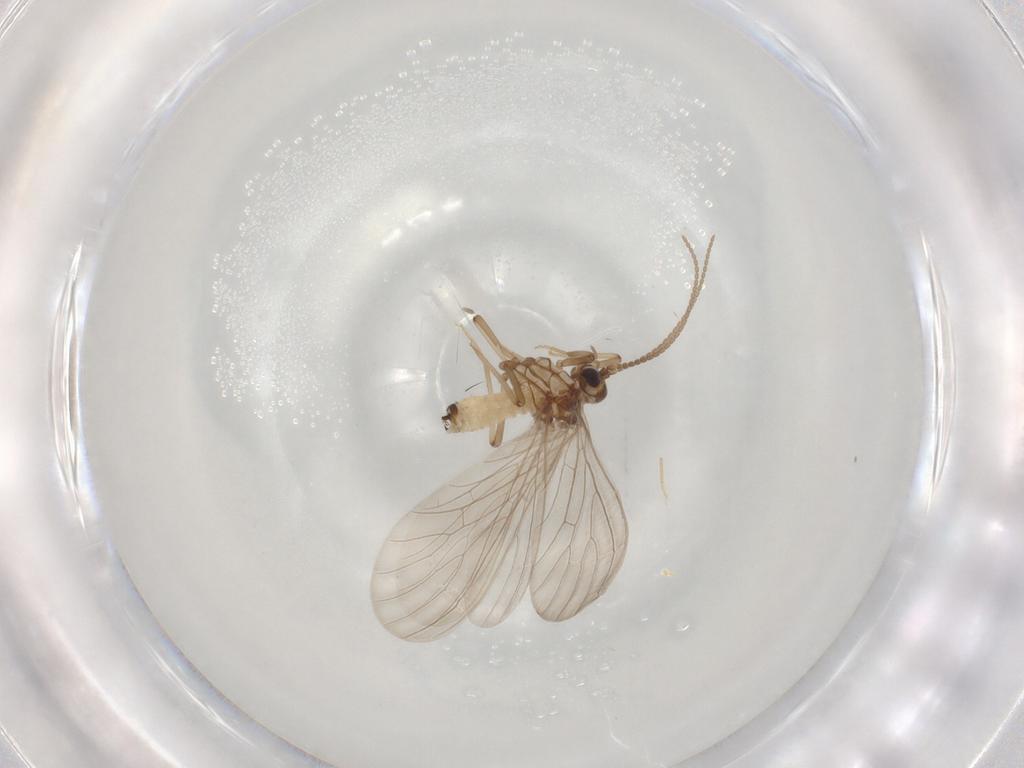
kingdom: Animalia
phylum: Arthropoda
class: Insecta
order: Neuroptera
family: Coniopterygidae
